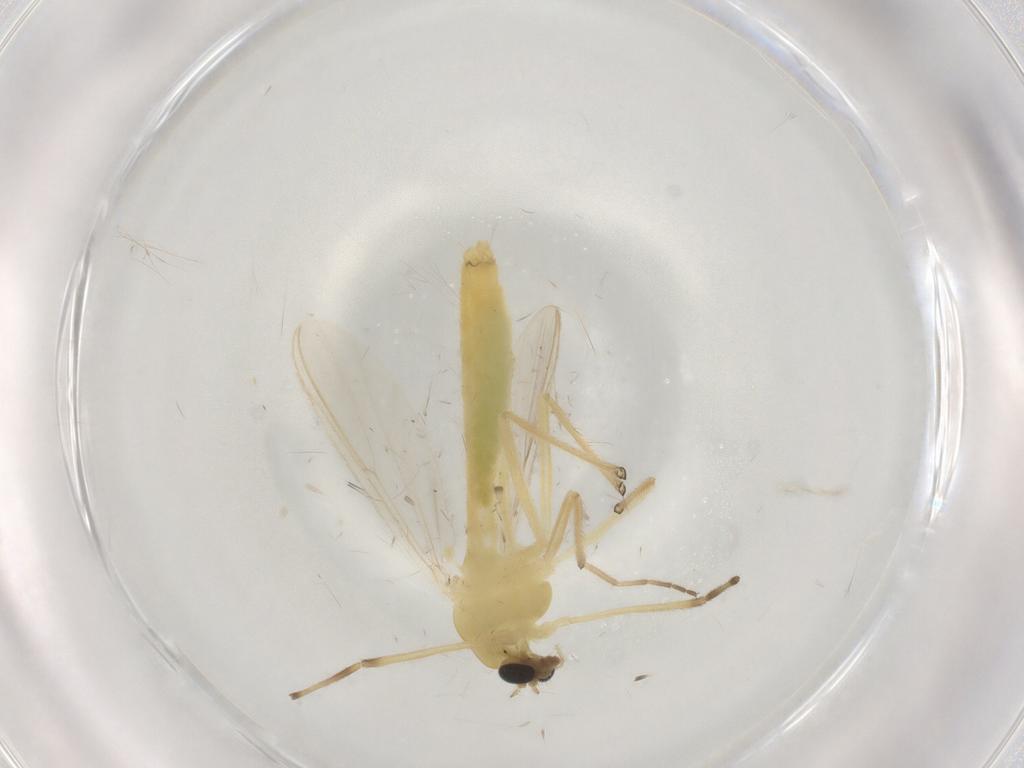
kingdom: Animalia
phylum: Arthropoda
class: Insecta
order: Diptera
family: Chironomidae
